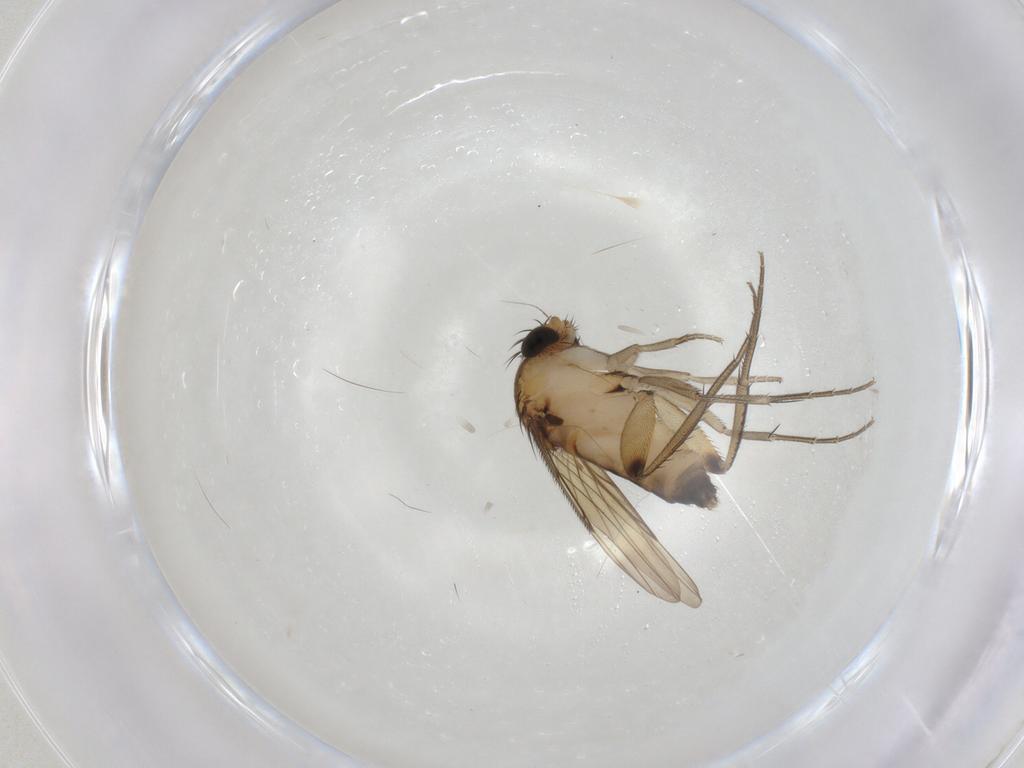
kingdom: Animalia
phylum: Arthropoda
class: Insecta
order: Diptera
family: Phoridae
